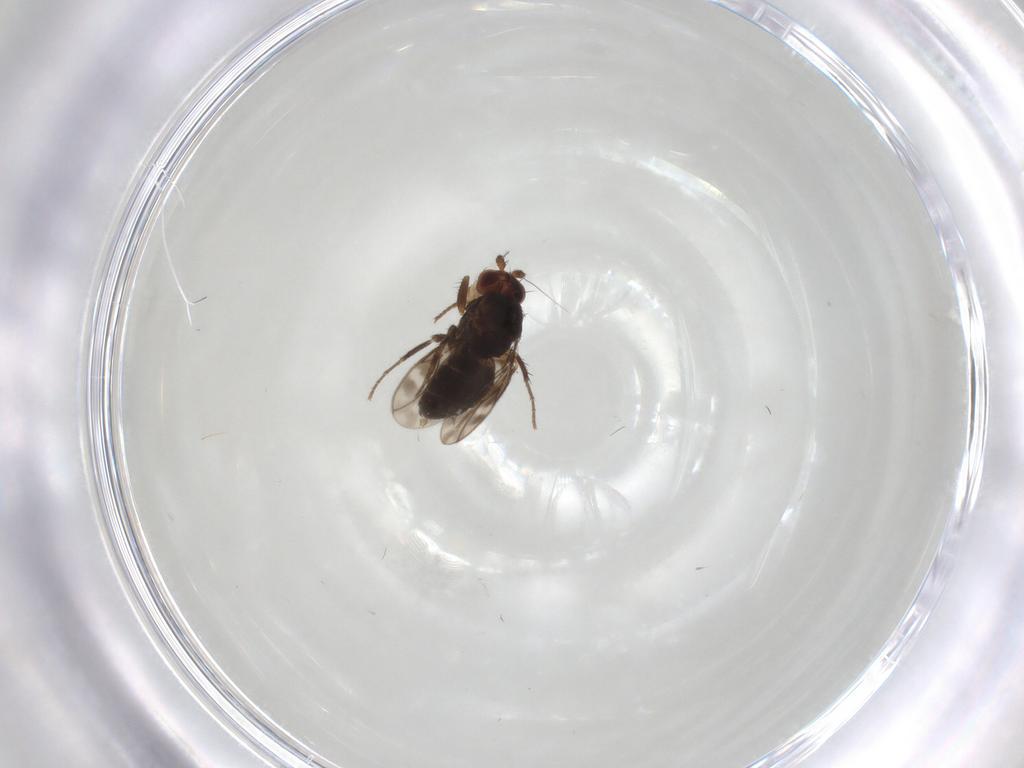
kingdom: Animalia
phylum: Arthropoda
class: Insecta
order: Diptera
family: Sphaeroceridae
